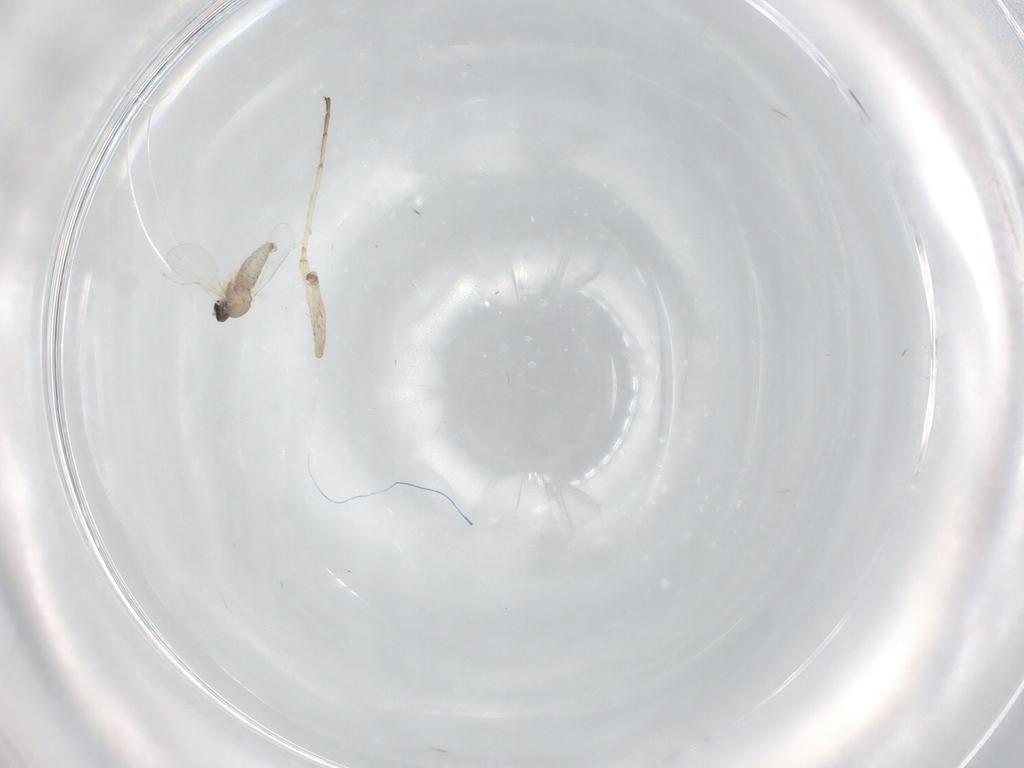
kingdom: Animalia
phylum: Arthropoda
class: Insecta
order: Diptera
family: Cecidomyiidae
